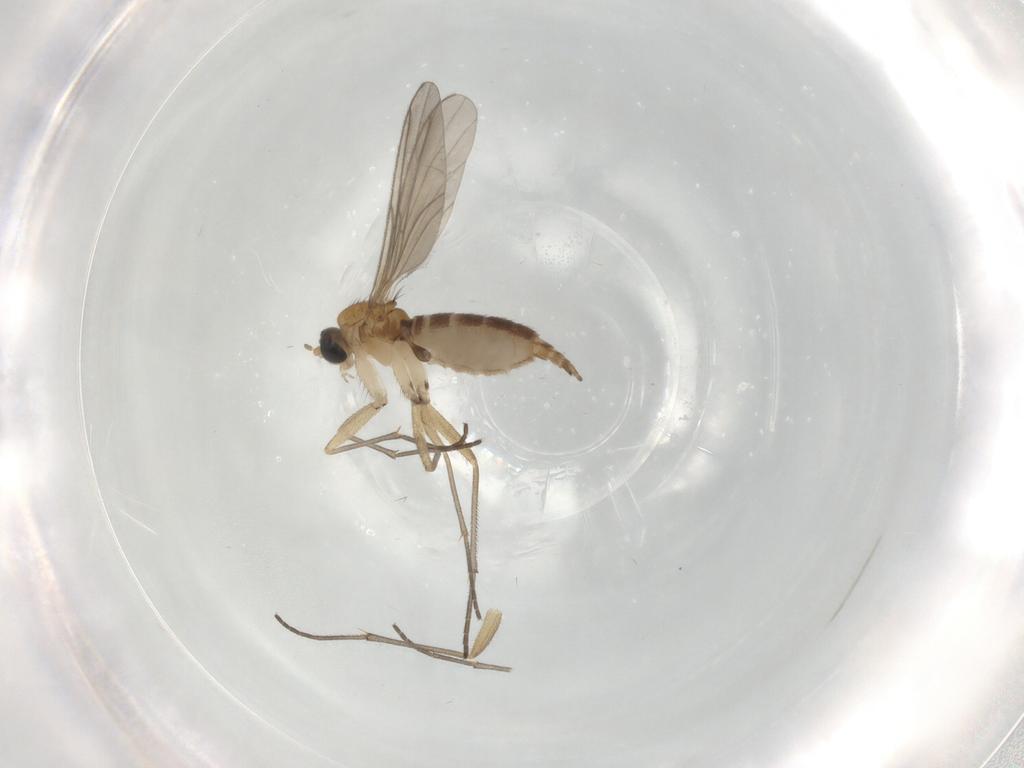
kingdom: Animalia
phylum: Arthropoda
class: Insecta
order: Diptera
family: Sciaridae
